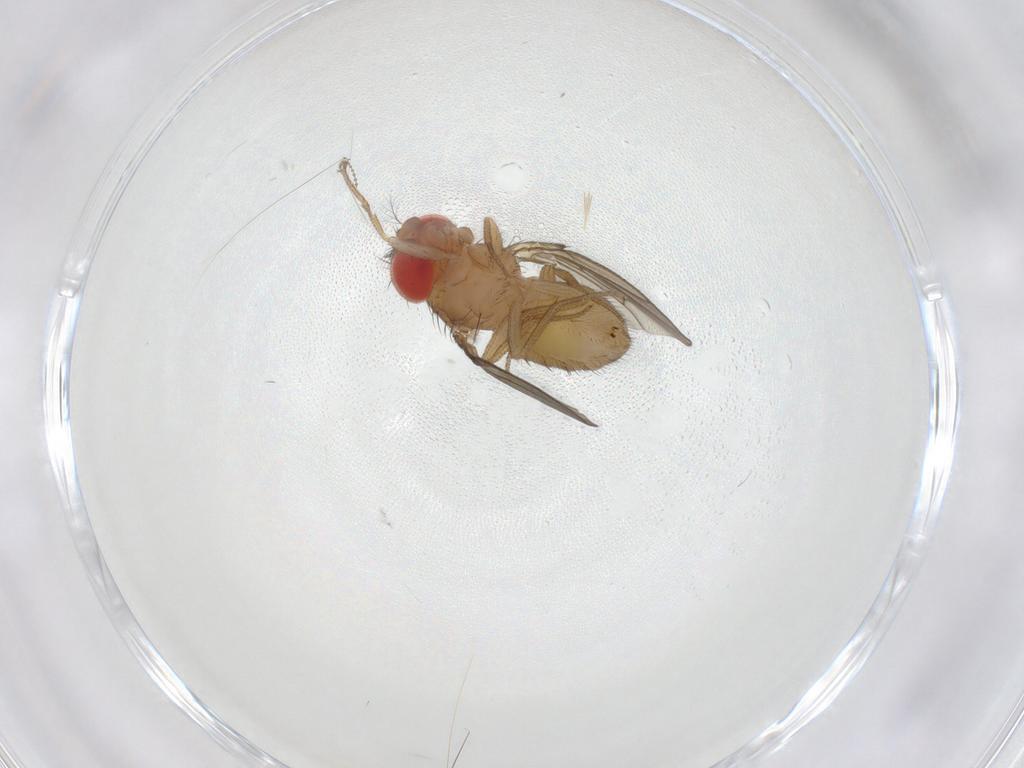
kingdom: Animalia
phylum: Arthropoda
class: Insecta
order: Diptera
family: Drosophilidae
